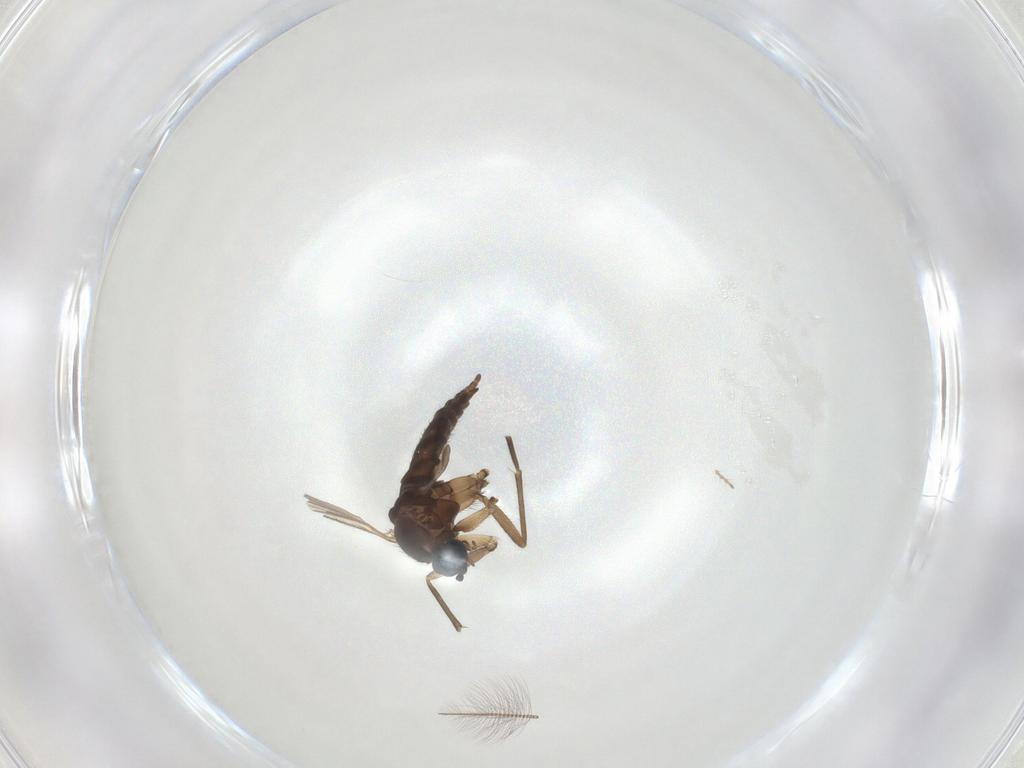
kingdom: Animalia
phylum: Arthropoda
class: Insecta
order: Diptera
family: Sciaridae
